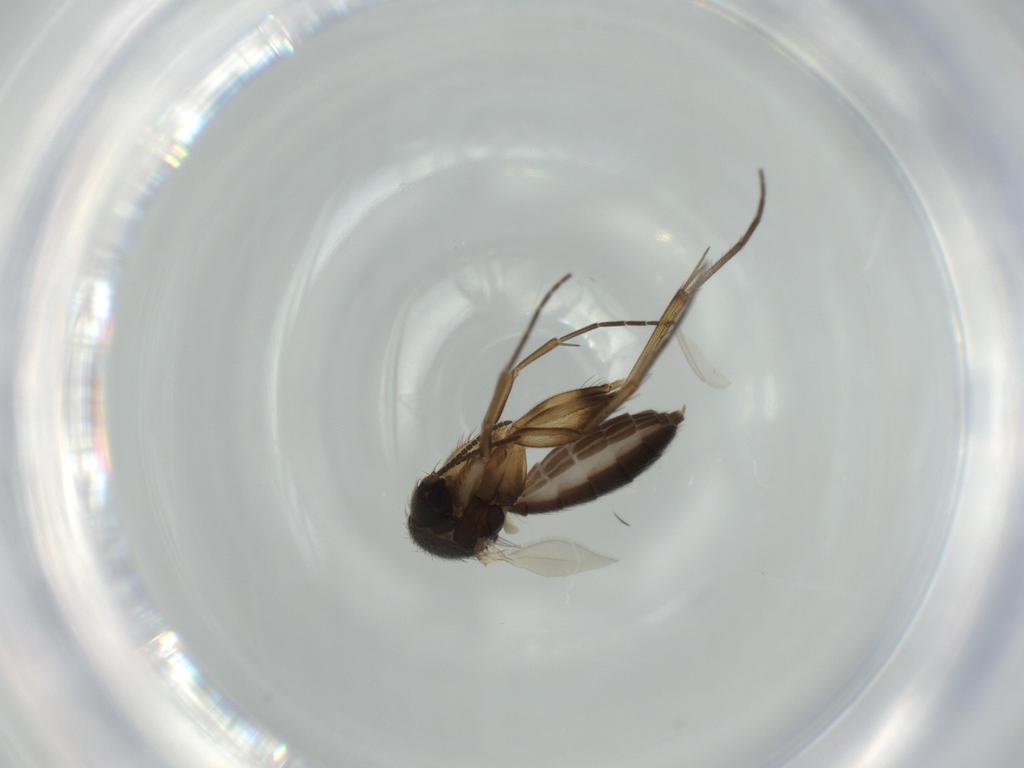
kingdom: Animalia
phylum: Arthropoda
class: Insecta
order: Diptera
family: Mycetophilidae
